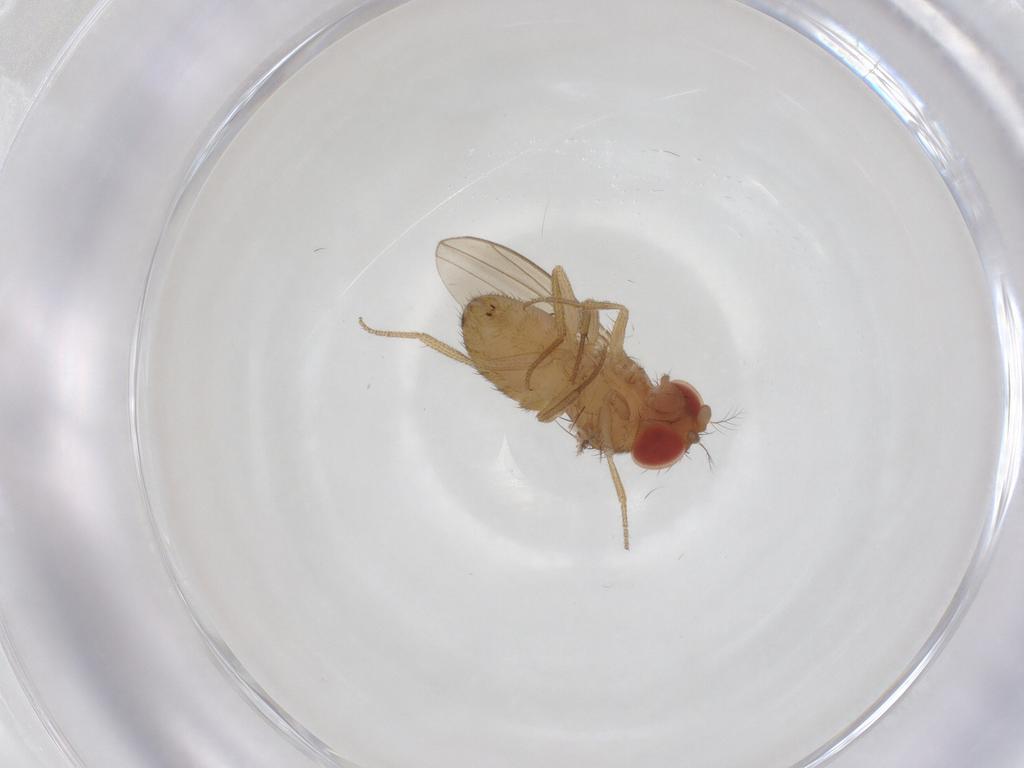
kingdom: Animalia
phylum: Arthropoda
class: Insecta
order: Diptera
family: Drosophilidae
